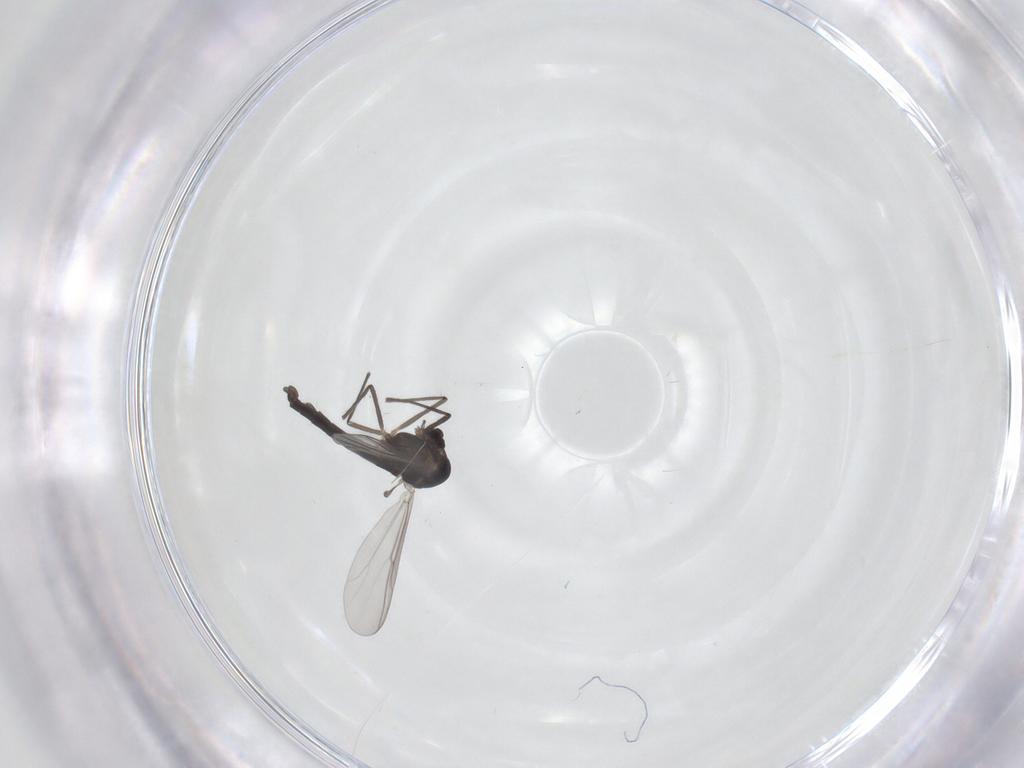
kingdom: Animalia
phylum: Arthropoda
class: Insecta
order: Diptera
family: Chironomidae
